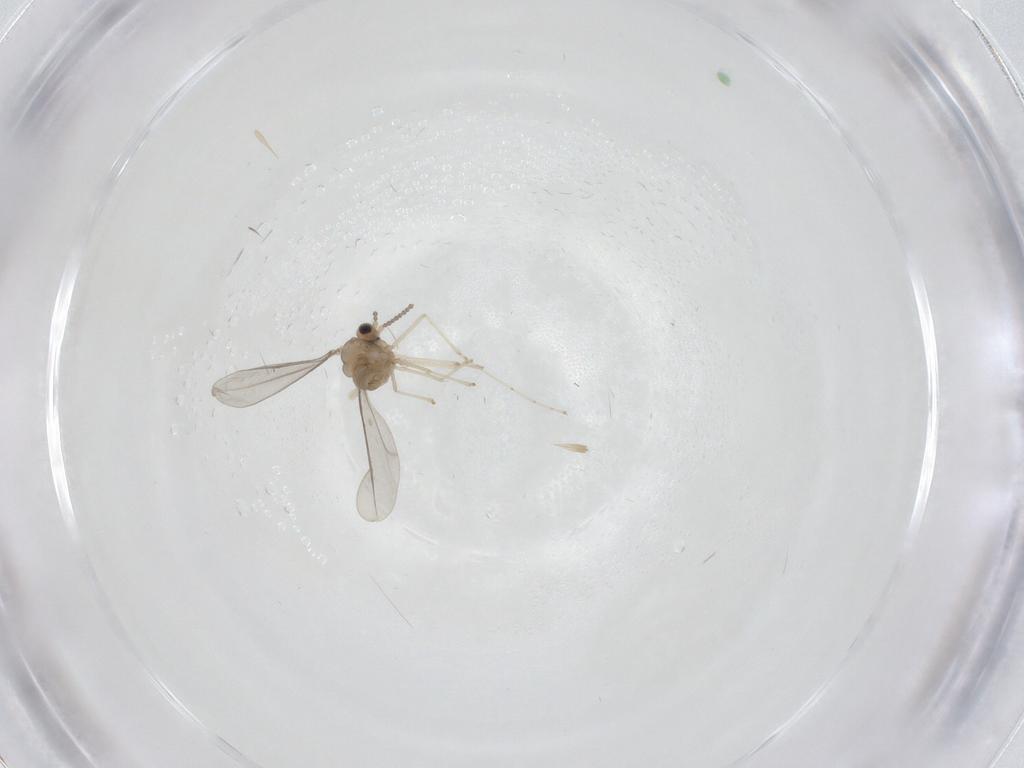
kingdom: Animalia
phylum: Arthropoda
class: Insecta
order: Diptera
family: Cecidomyiidae
